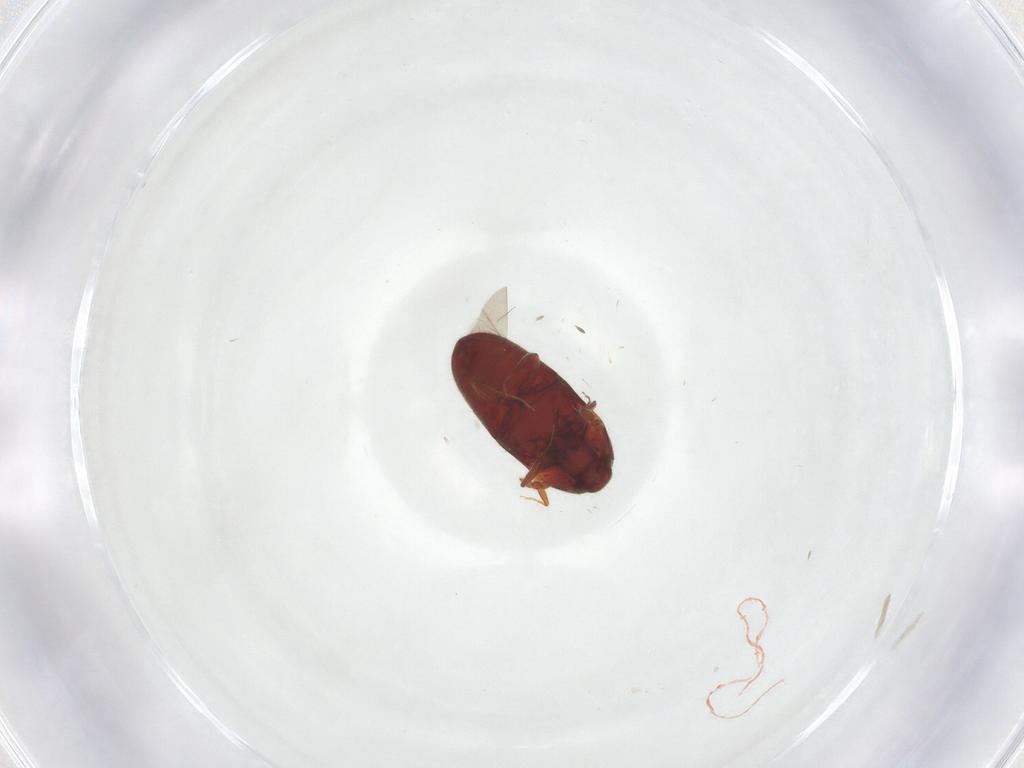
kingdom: Animalia
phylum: Arthropoda
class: Insecta
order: Coleoptera
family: Throscidae
